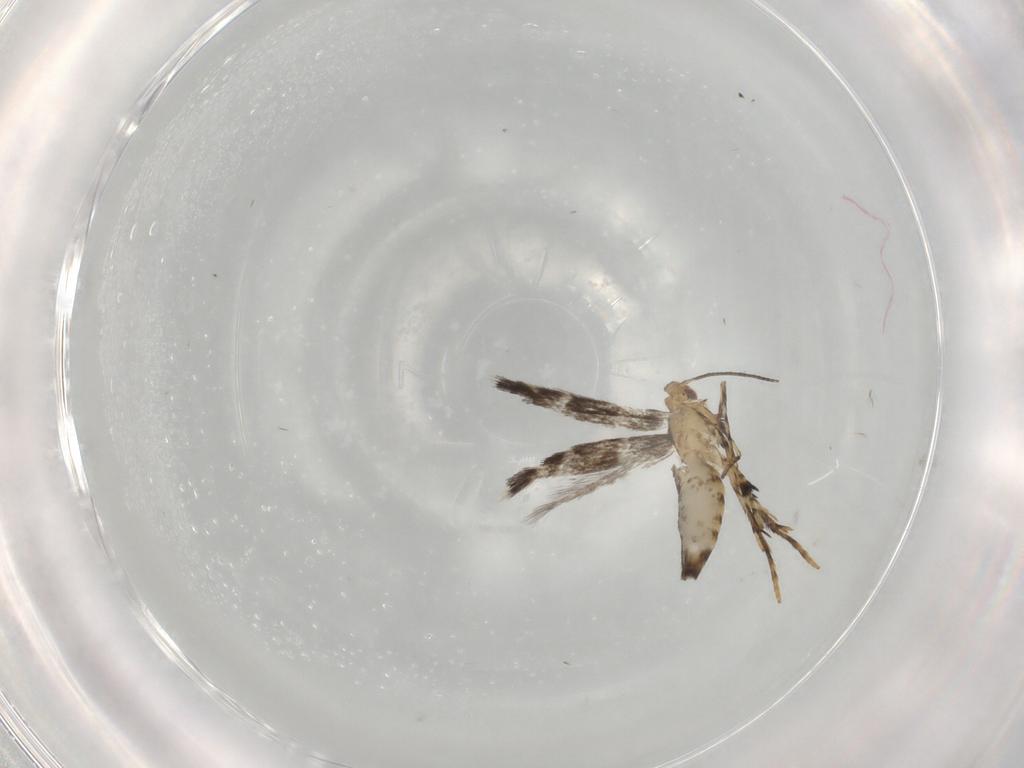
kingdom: Animalia
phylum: Arthropoda
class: Insecta
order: Lepidoptera
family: Gracillariidae
